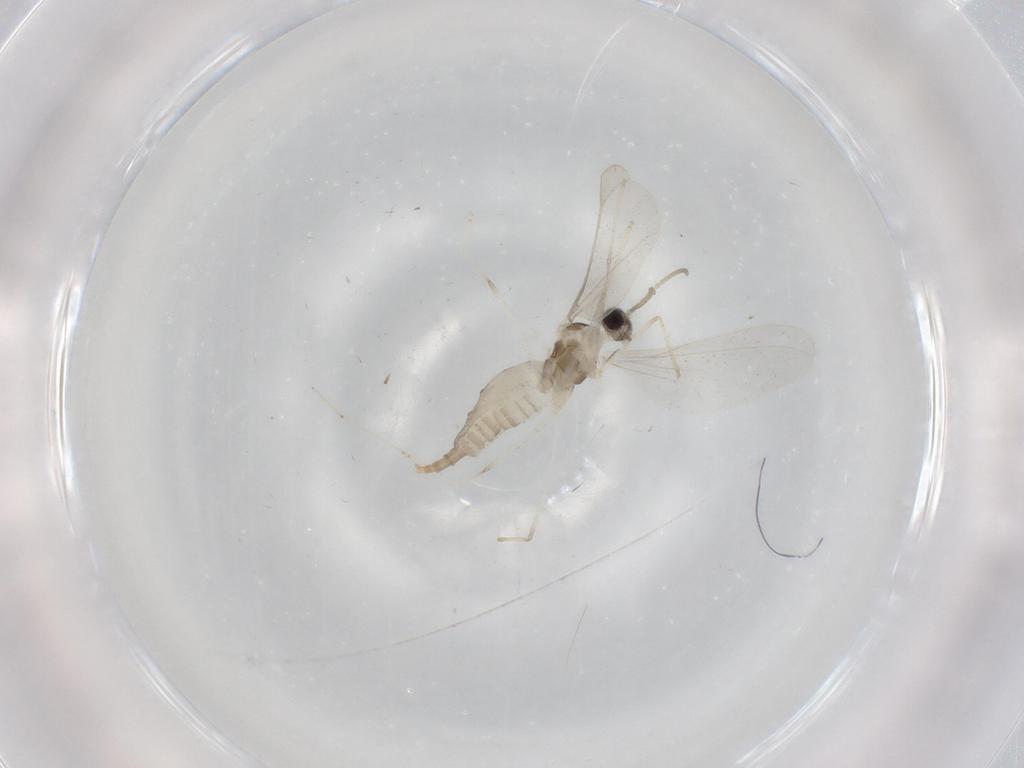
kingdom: Animalia
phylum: Arthropoda
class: Insecta
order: Diptera
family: Cecidomyiidae
